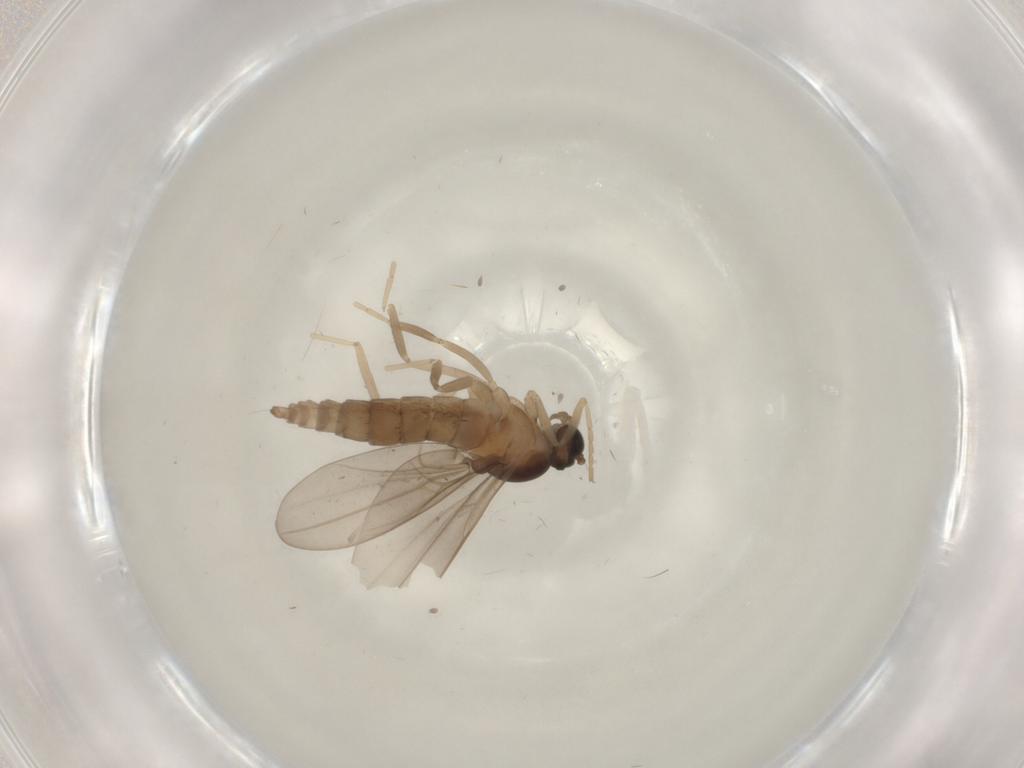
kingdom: Animalia
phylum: Arthropoda
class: Insecta
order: Diptera
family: Cecidomyiidae
